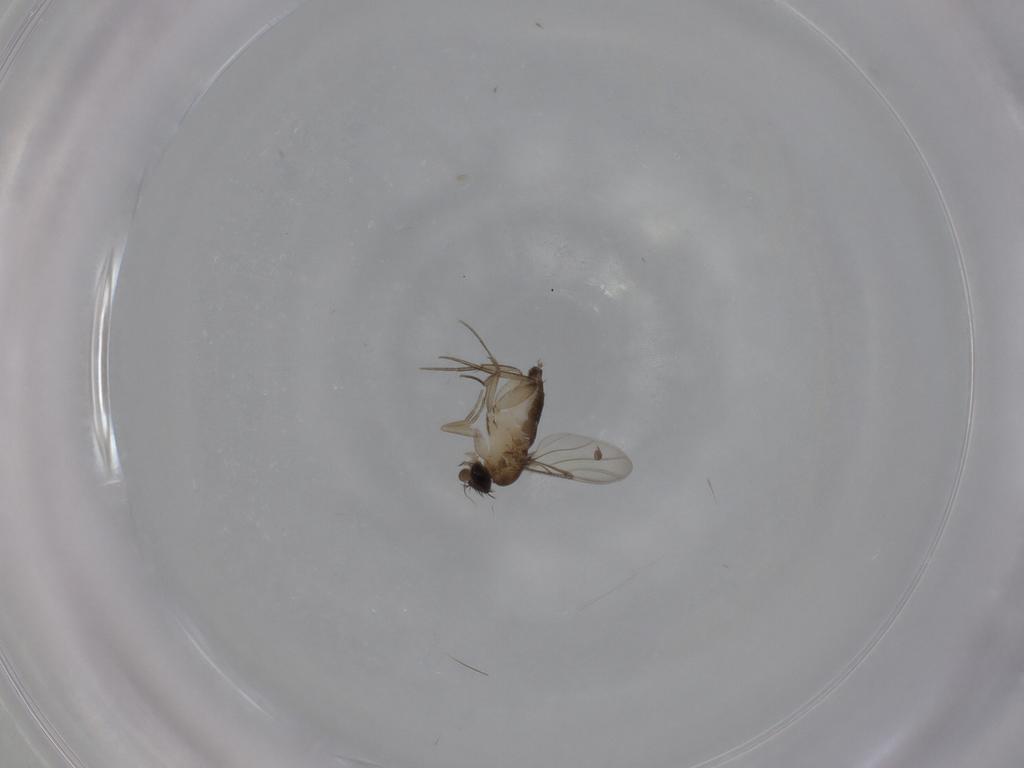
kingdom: Animalia
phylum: Arthropoda
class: Insecta
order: Diptera
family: Phoridae
